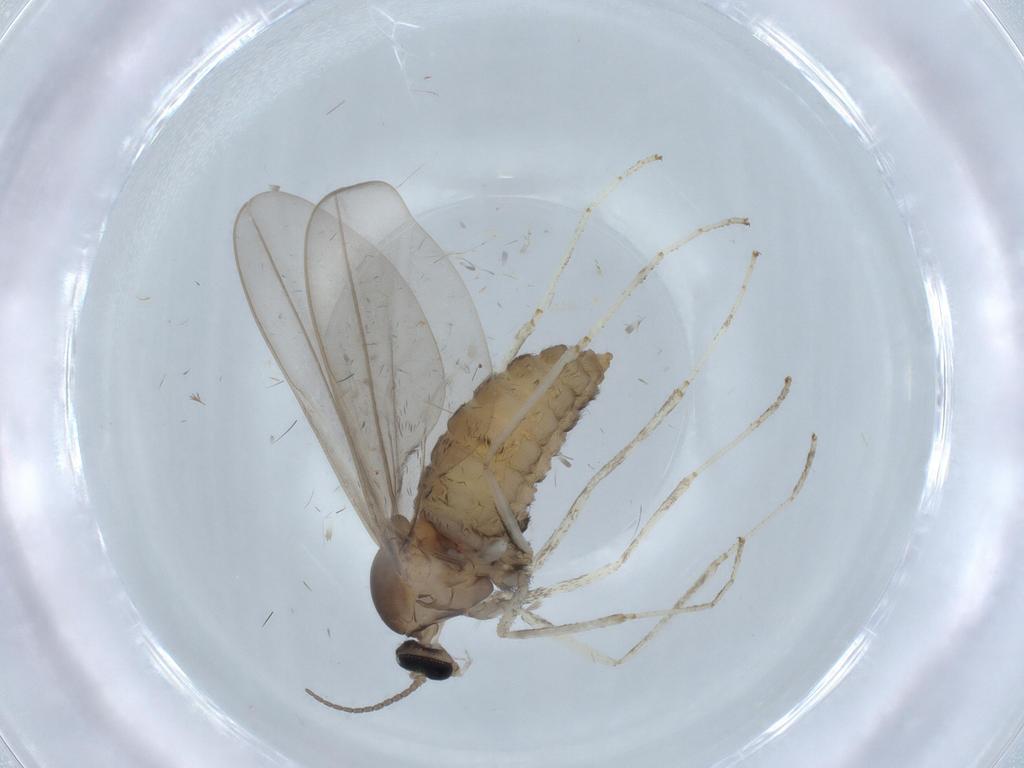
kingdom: Animalia
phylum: Arthropoda
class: Insecta
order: Diptera
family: Cecidomyiidae
